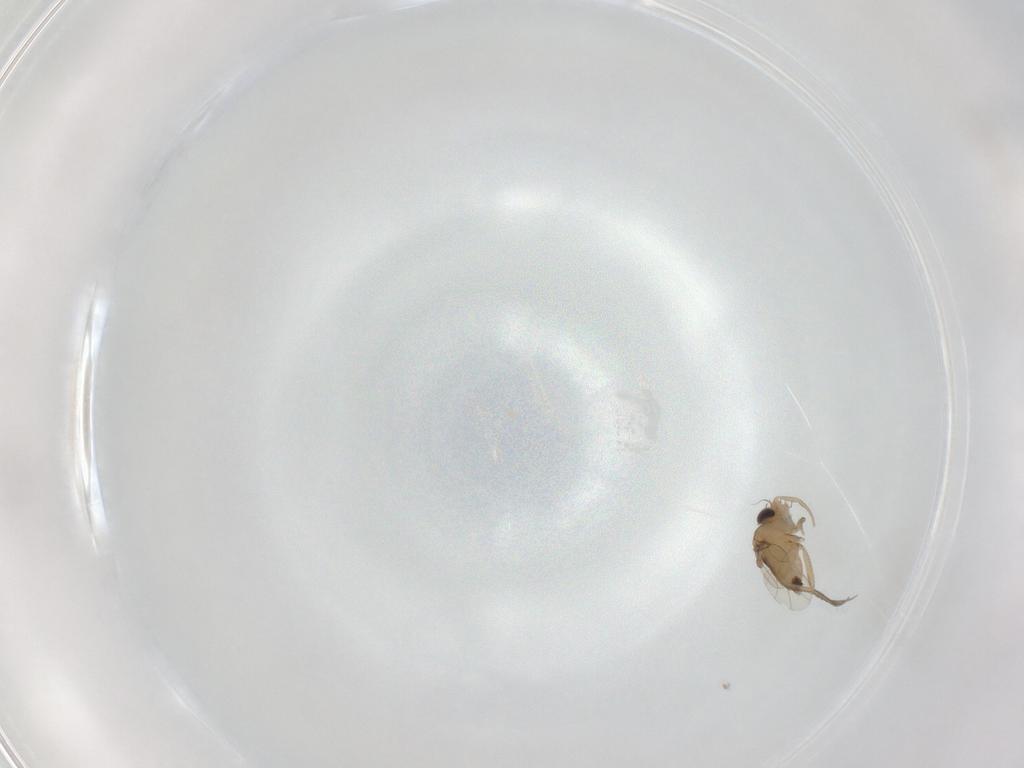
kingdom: Animalia
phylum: Arthropoda
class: Insecta
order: Diptera
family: Phoridae
